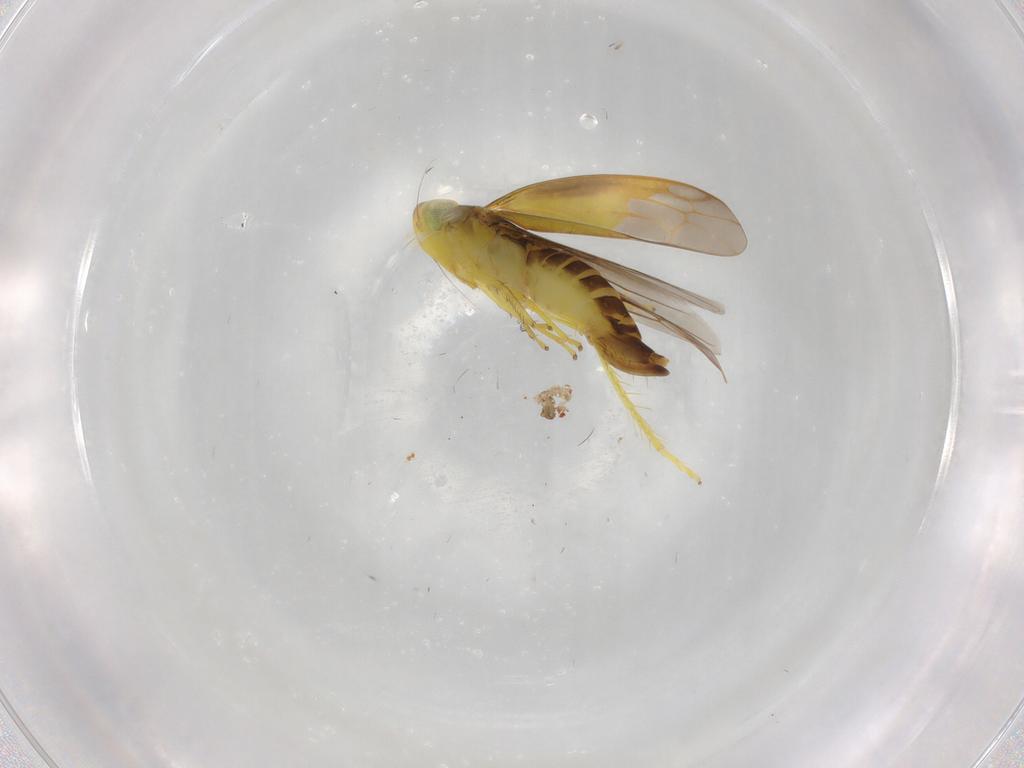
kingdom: Animalia
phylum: Arthropoda
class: Insecta
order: Hemiptera
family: Cicadellidae
